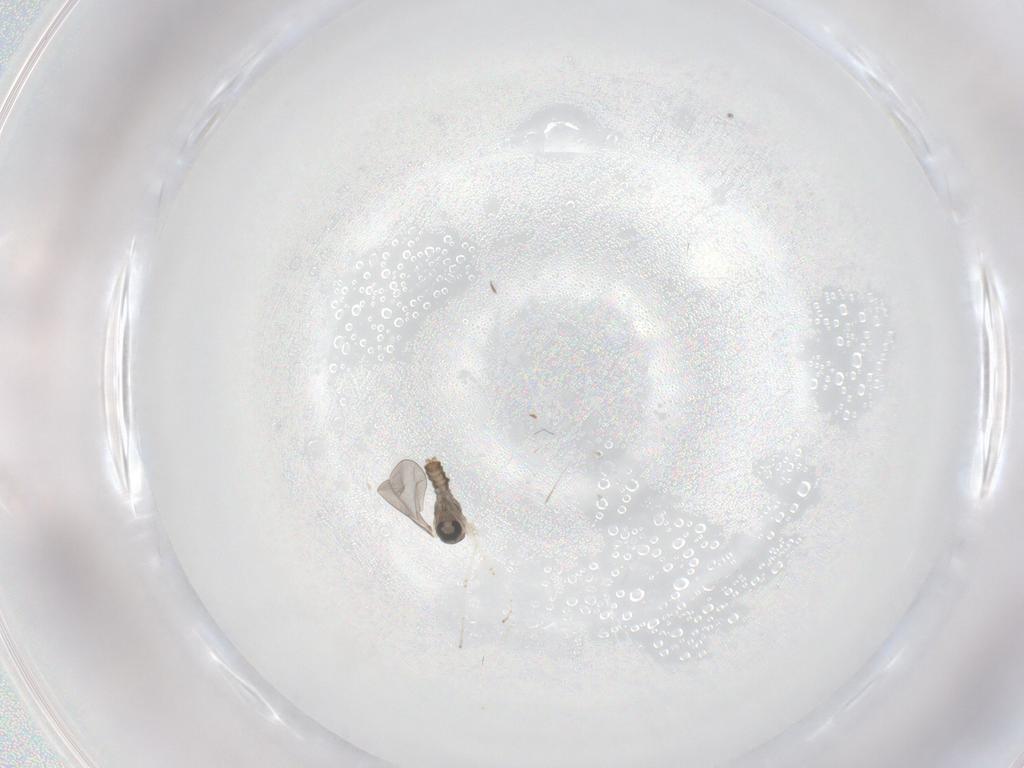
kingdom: Animalia
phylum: Arthropoda
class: Insecta
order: Diptera
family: Cecidomyiidae
